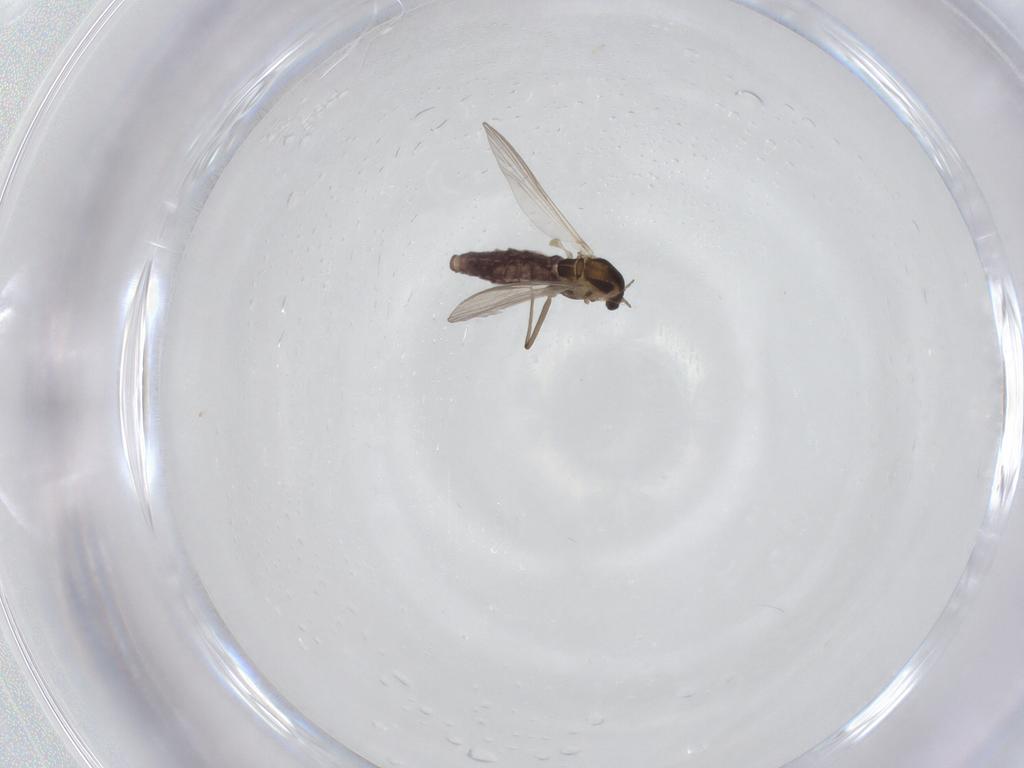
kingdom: Animalia
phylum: Arthropoda
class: Insecta
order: Diptera
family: Chironomidae
